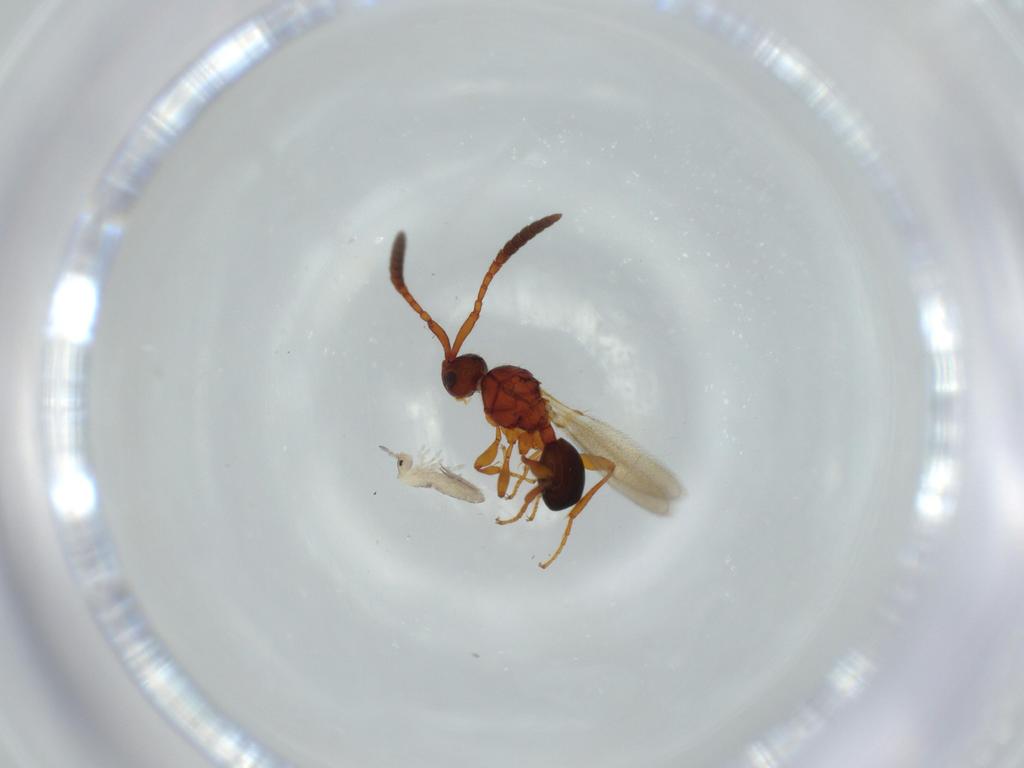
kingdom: Animalia
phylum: Arthropoda
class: Insecta
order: Hymenoptera
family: Diapriidae
